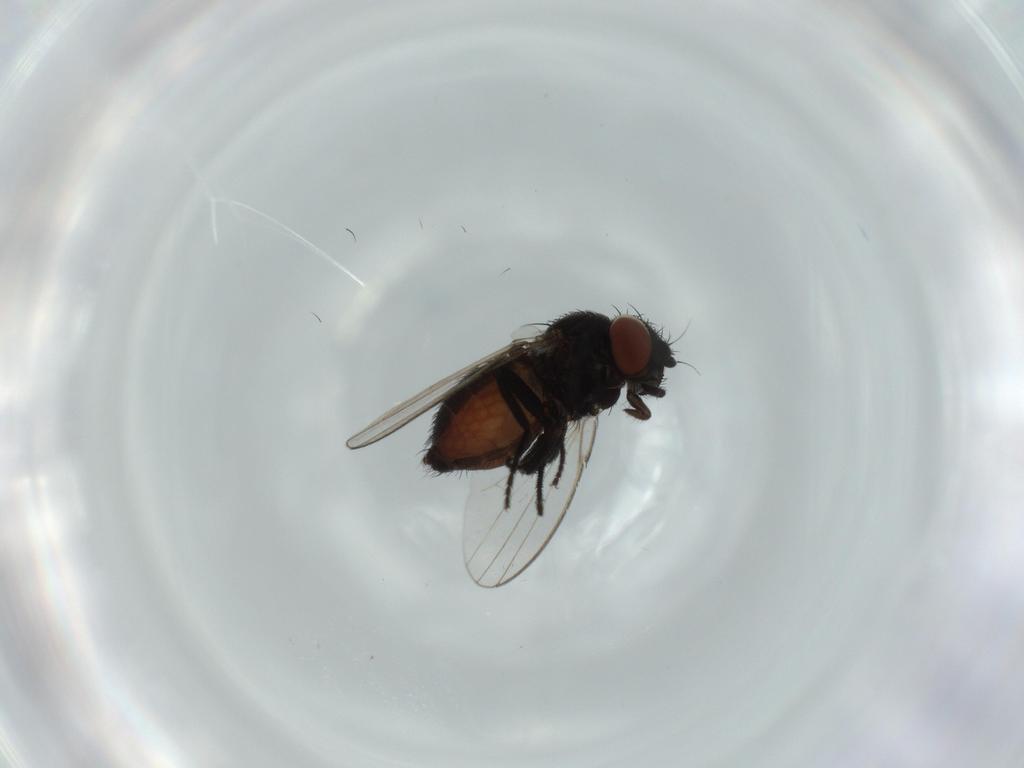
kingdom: Animalia
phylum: Arthropoda
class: Insecta
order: Diptera
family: Milichiidae
